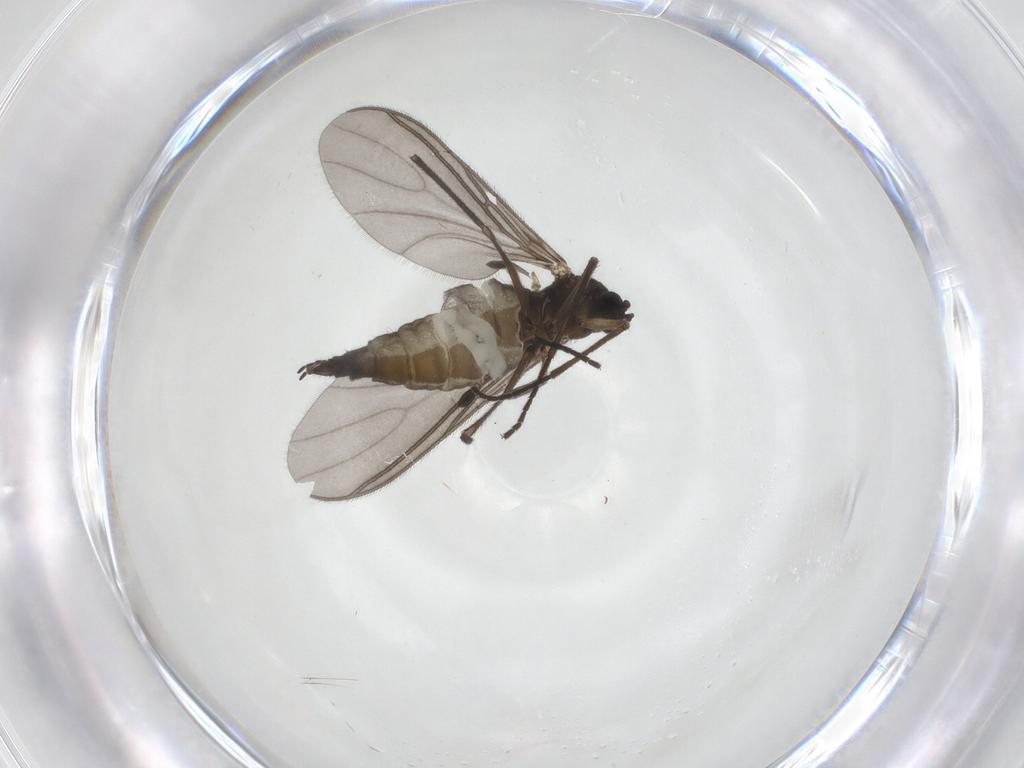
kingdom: Animalia
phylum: Arthropoda
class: Insecta
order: Diptera
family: Sciaridae
